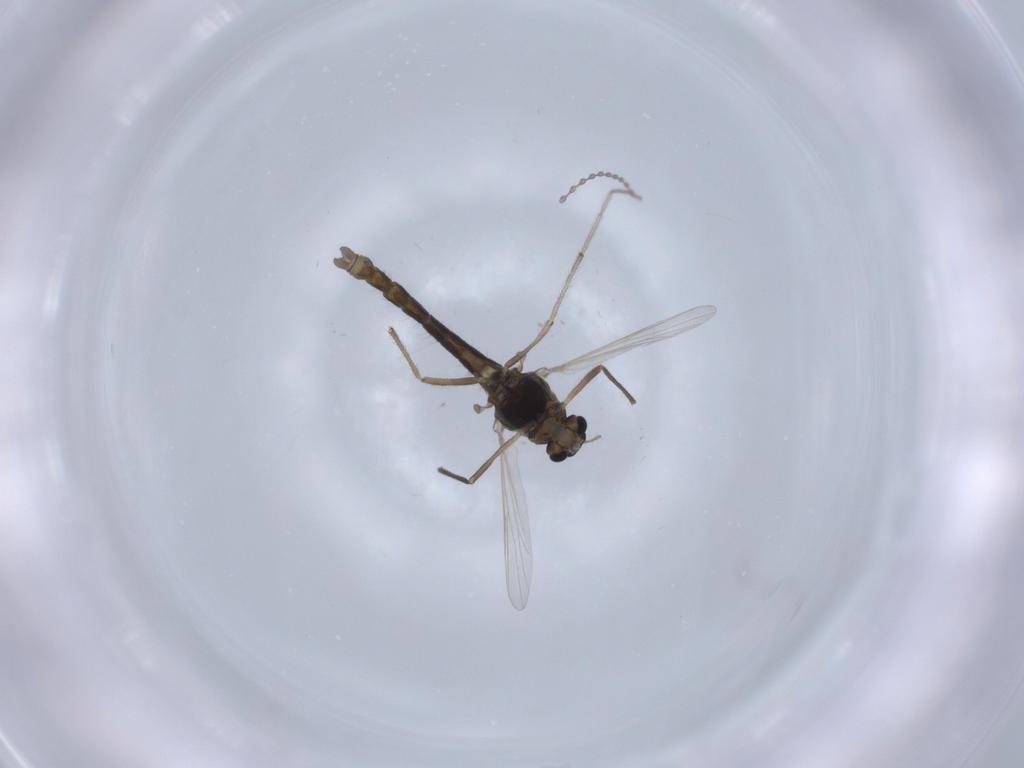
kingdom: Animalia
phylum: Arthropoda
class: Insecta
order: Diptera
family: Chironomidae
